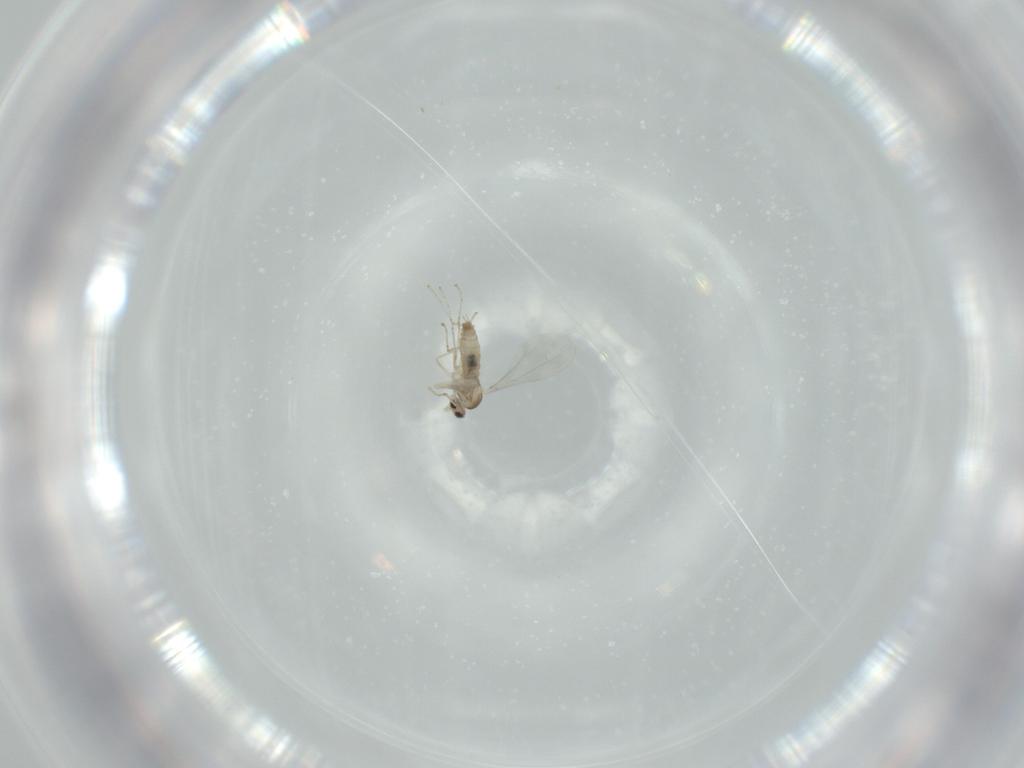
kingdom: Animalia
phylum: Arthropoda
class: Insecta
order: Diptera
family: Cecidomyiidae
